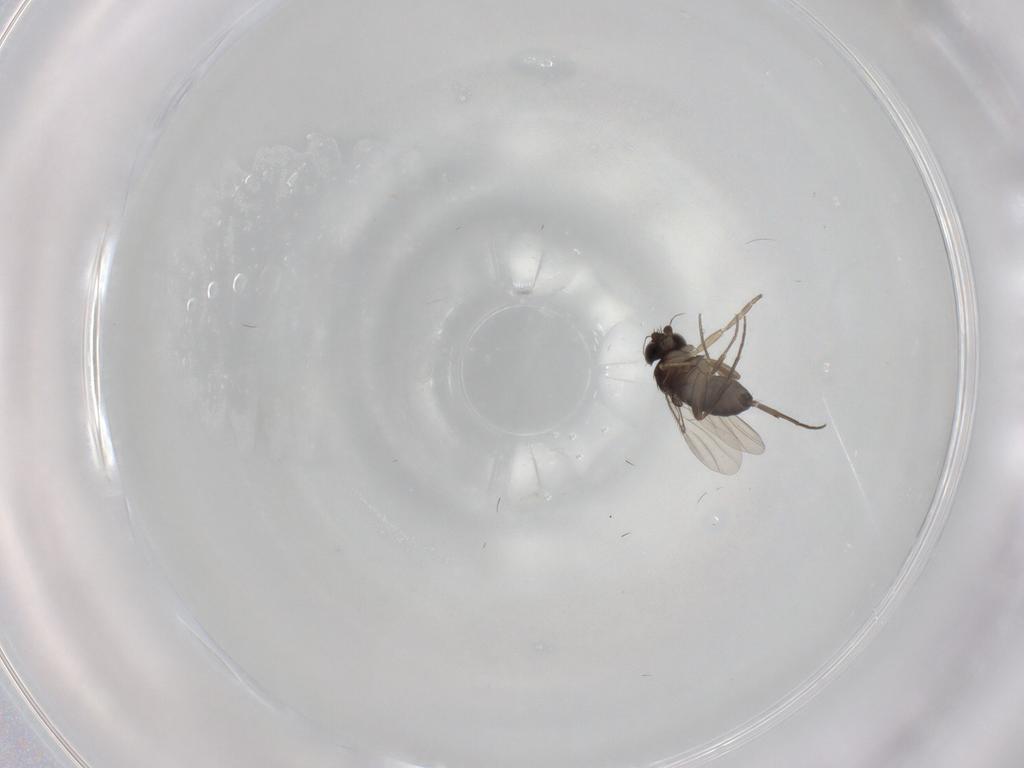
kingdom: Animalia
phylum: Arthropoda
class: Insecta
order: Diptera
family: Phoridae
